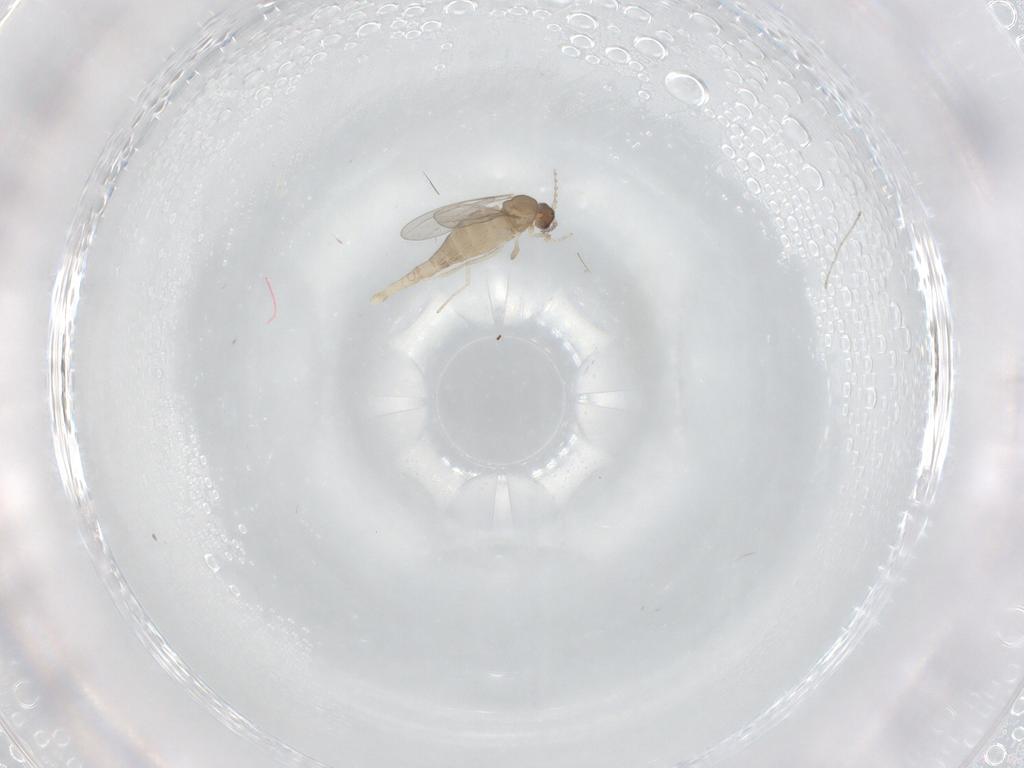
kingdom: Animalia
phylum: Arthropoda
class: Insecta
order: Diptera
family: Cecidomyiidae
